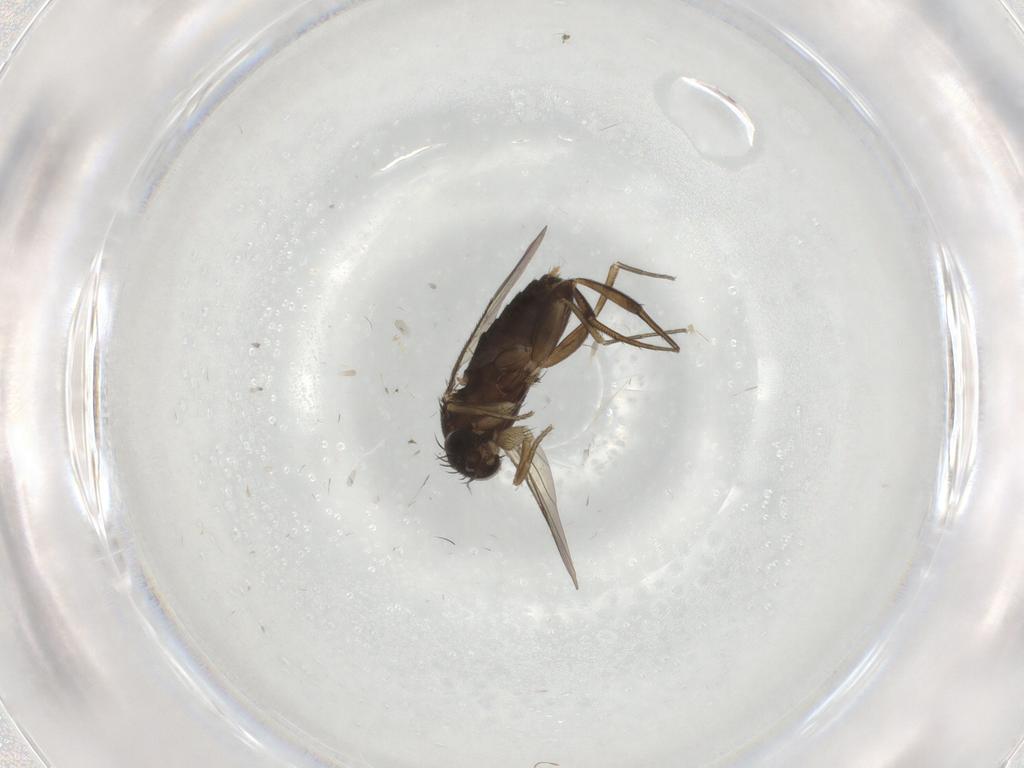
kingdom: Animalia
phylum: Arthropoda
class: Insecta
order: Diptera
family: Phoridae
